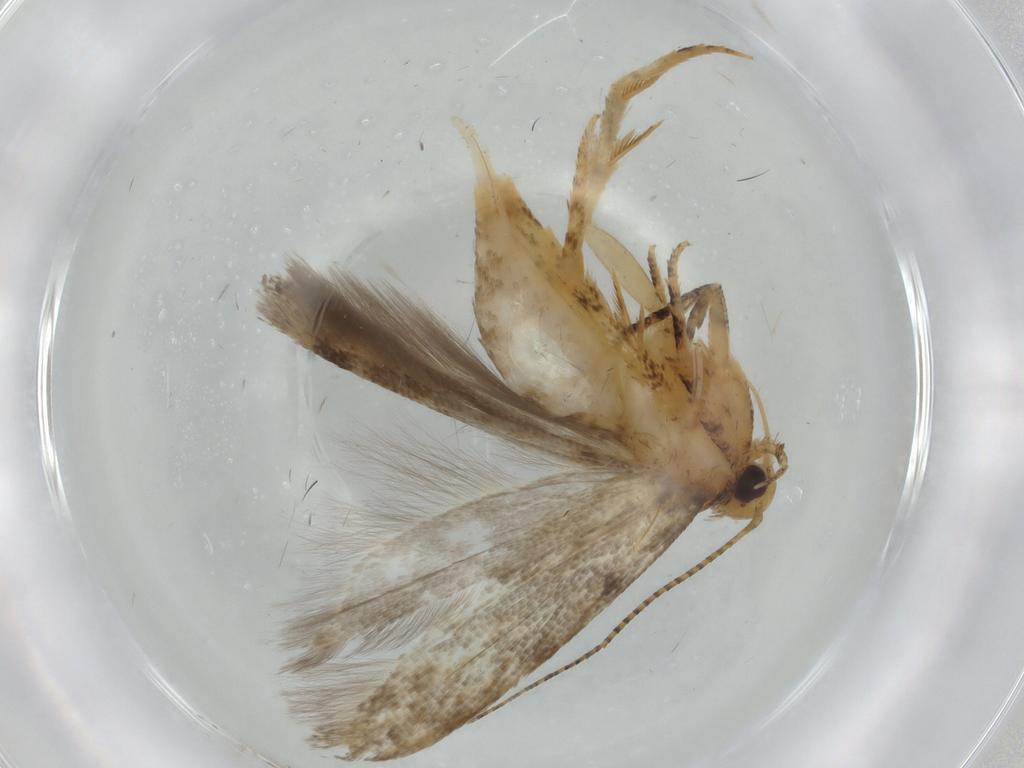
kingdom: Animalia
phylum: Arthropoda
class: Insecta
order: Lepidoptera
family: Gelechiidae
